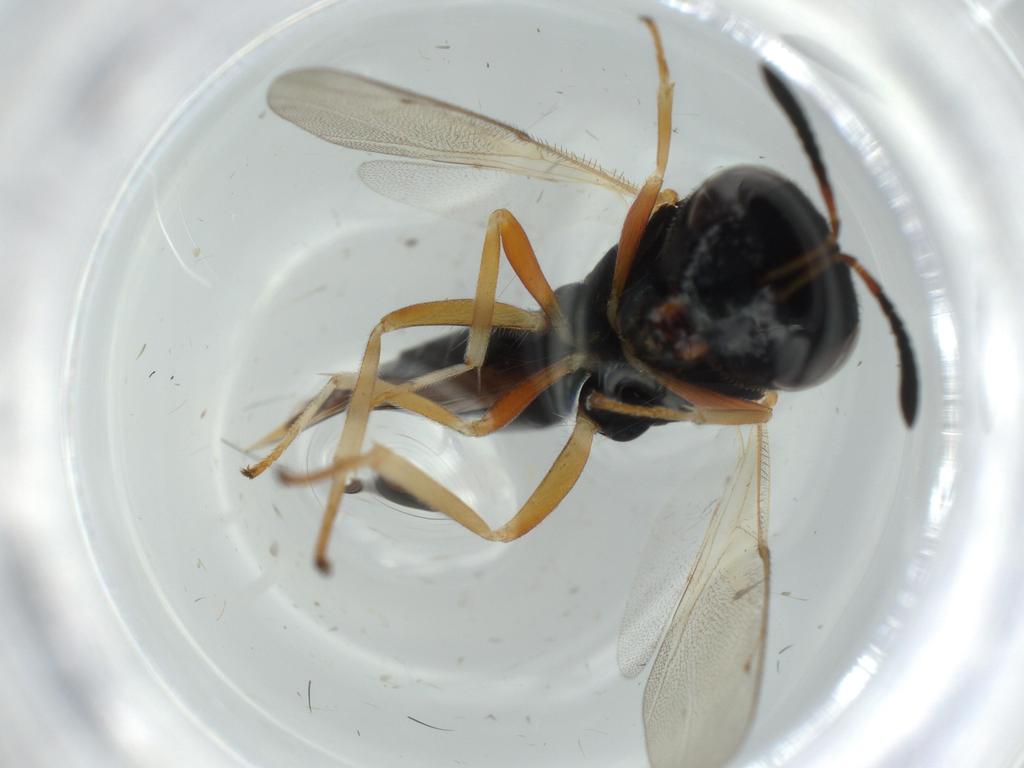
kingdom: Animalia
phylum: Arthropoda
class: Insecta
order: Hymenoptera
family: Pteromalidae
